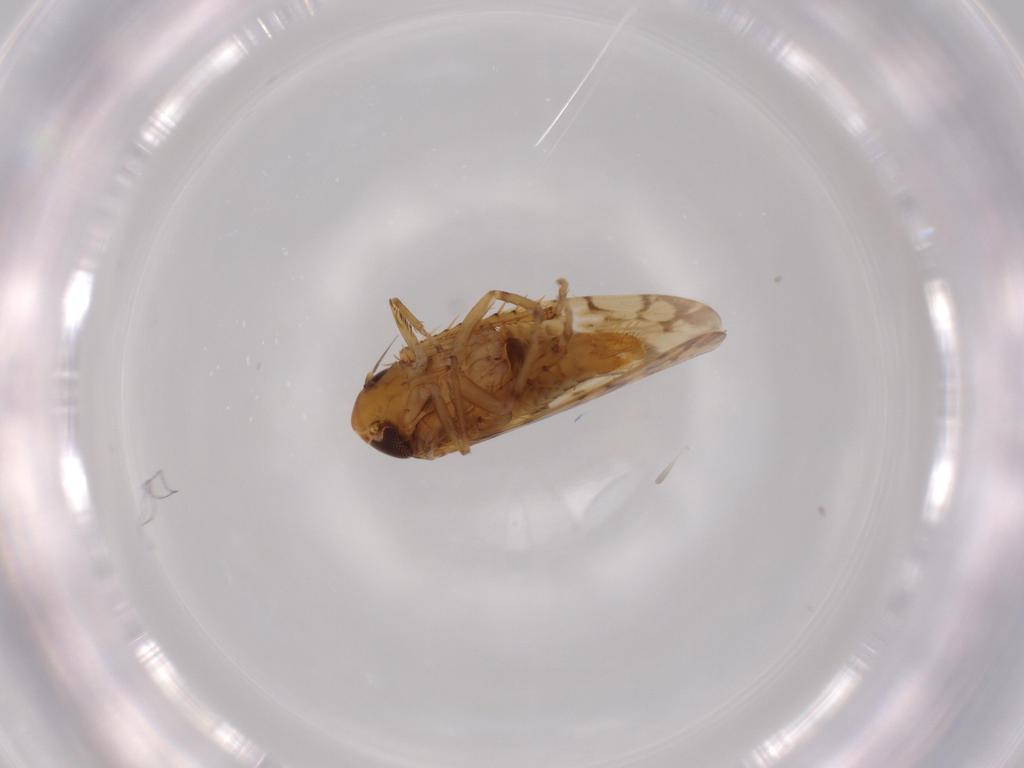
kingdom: Animalia
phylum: Arthropoda
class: Insecta
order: Hemiptera
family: Cicadellidae
